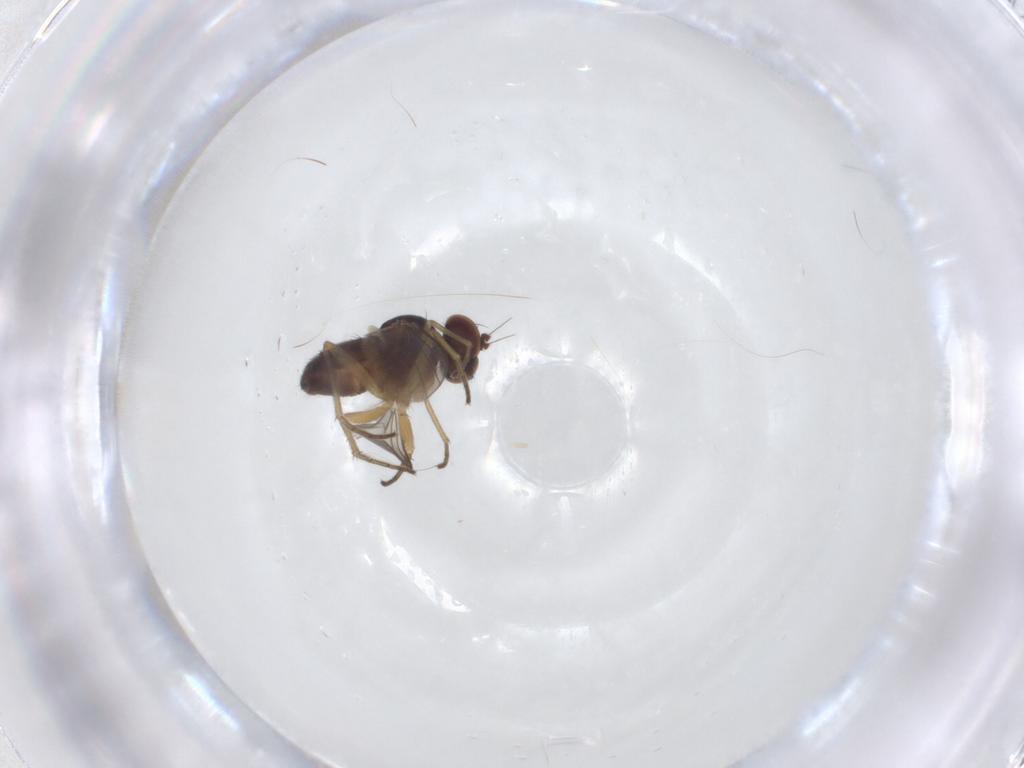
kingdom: Animalia
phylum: Arthropoda
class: Insecta
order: Diptera
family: Dolichopodidae
